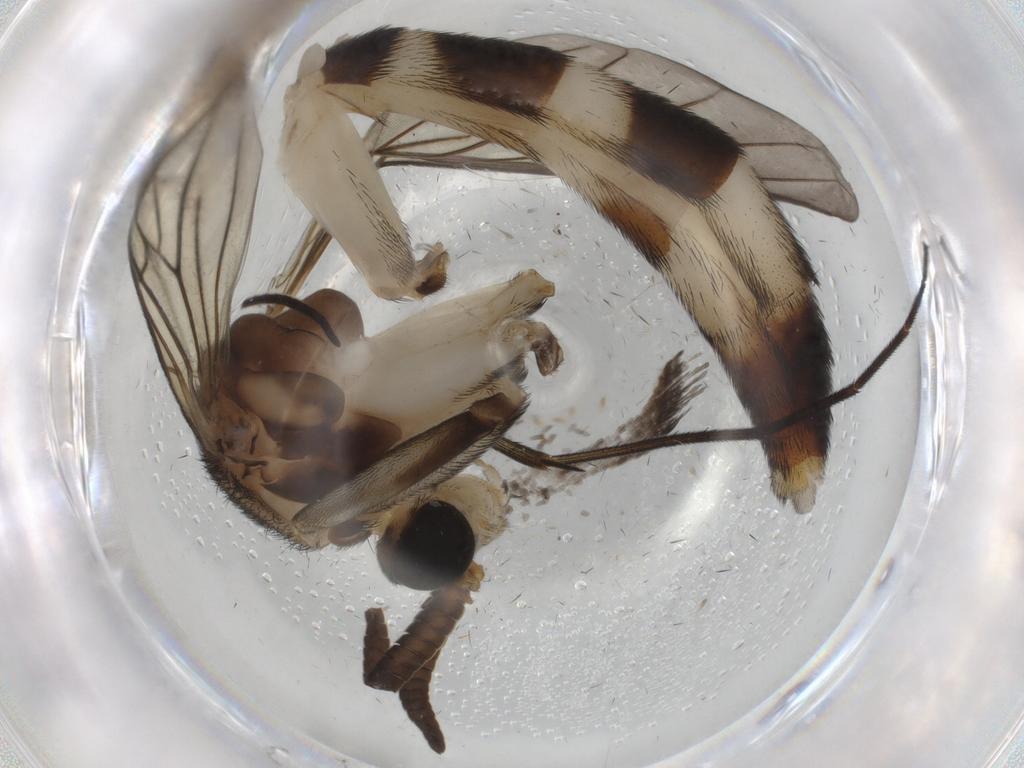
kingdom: Animalia
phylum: Arthropoda
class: Insecta
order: Diptera
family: Keroplatidae
